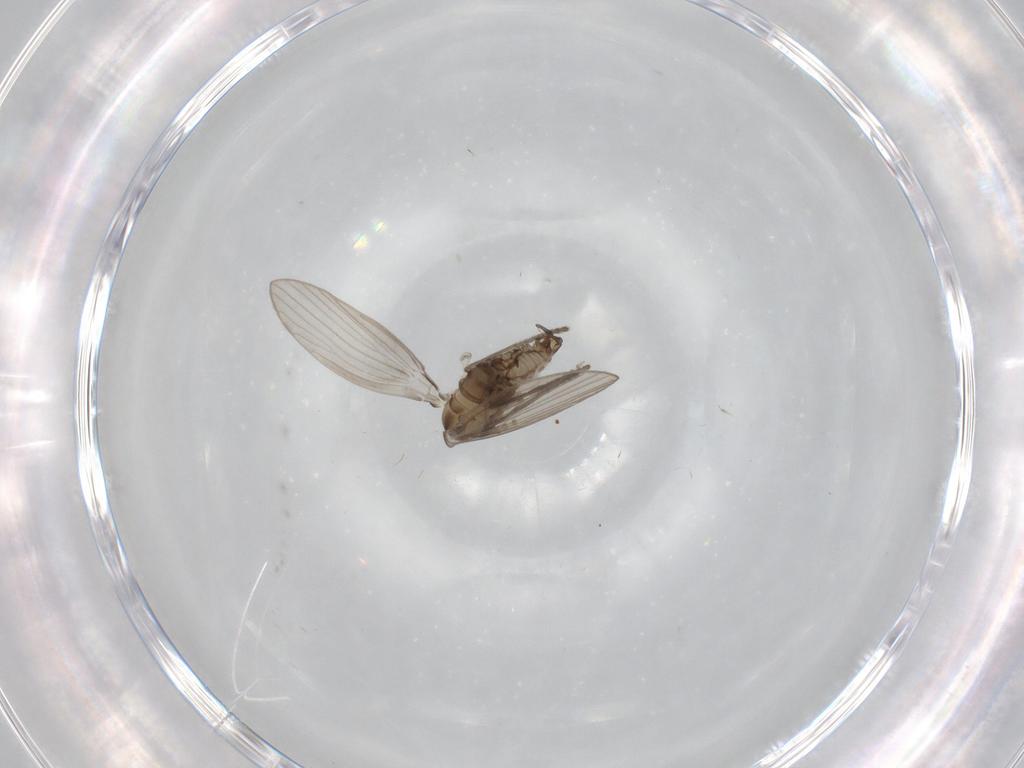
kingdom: Animalia
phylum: Arthropoda
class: Insecta
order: Diptera
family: Psychodidae
